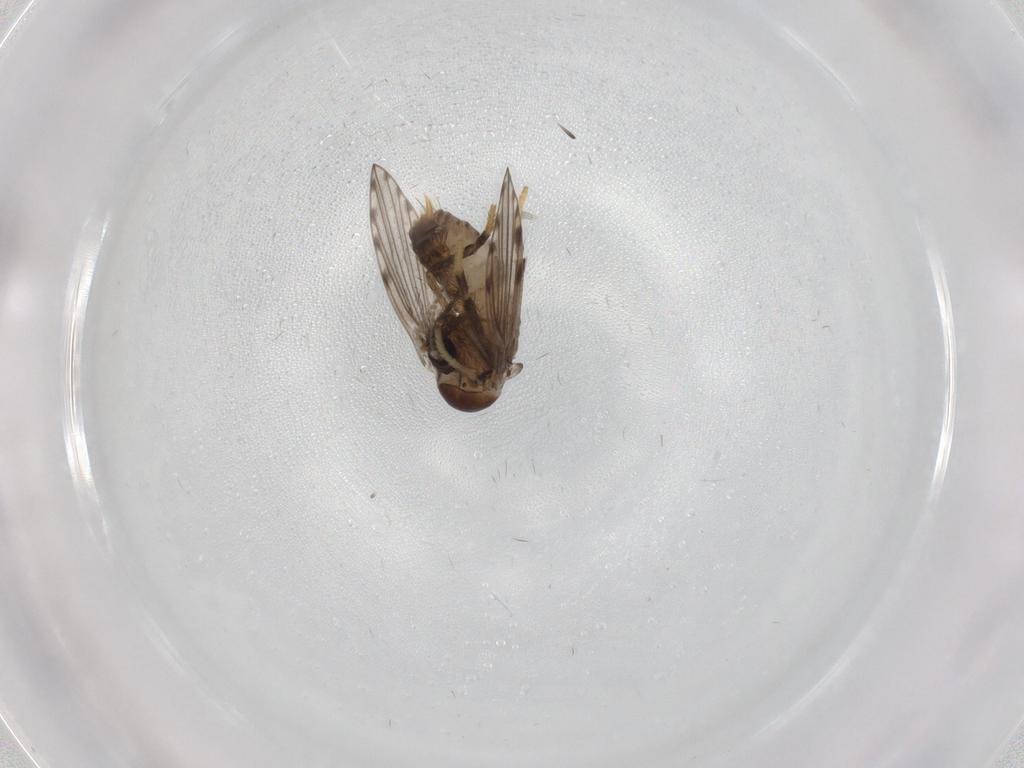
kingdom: Animalia
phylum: Arthropoda
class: Insecta
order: Diptera
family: Psychodidae
